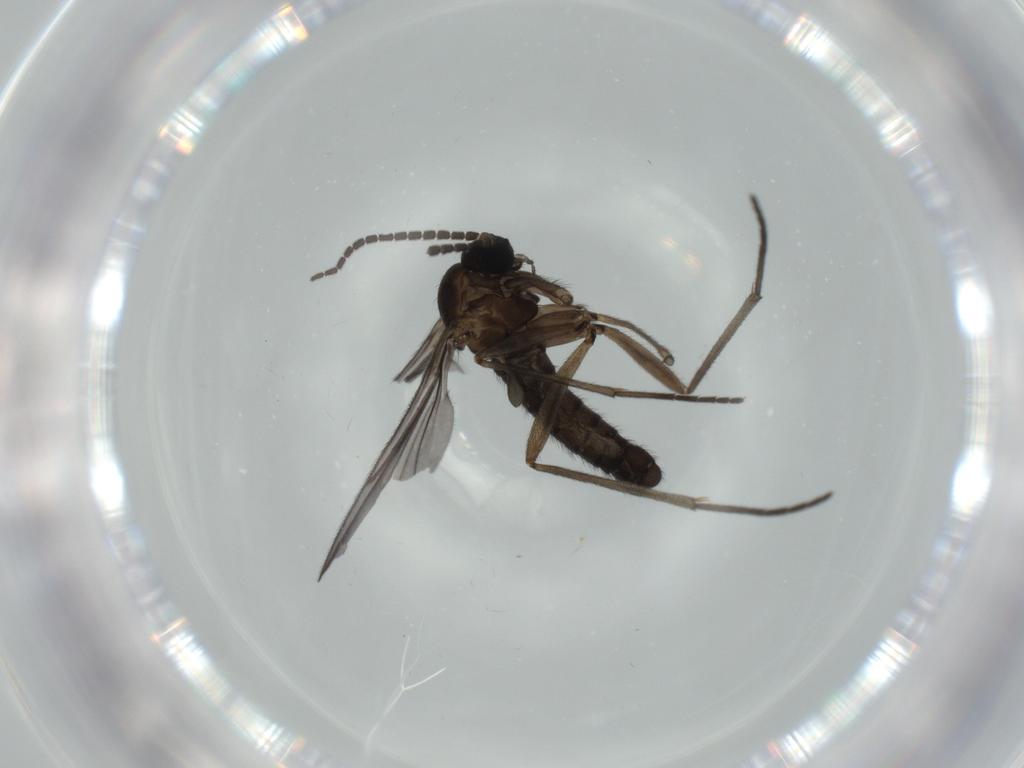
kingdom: Animalia
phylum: Arthropoda
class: Insecta
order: Diptera
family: Sciaridae
